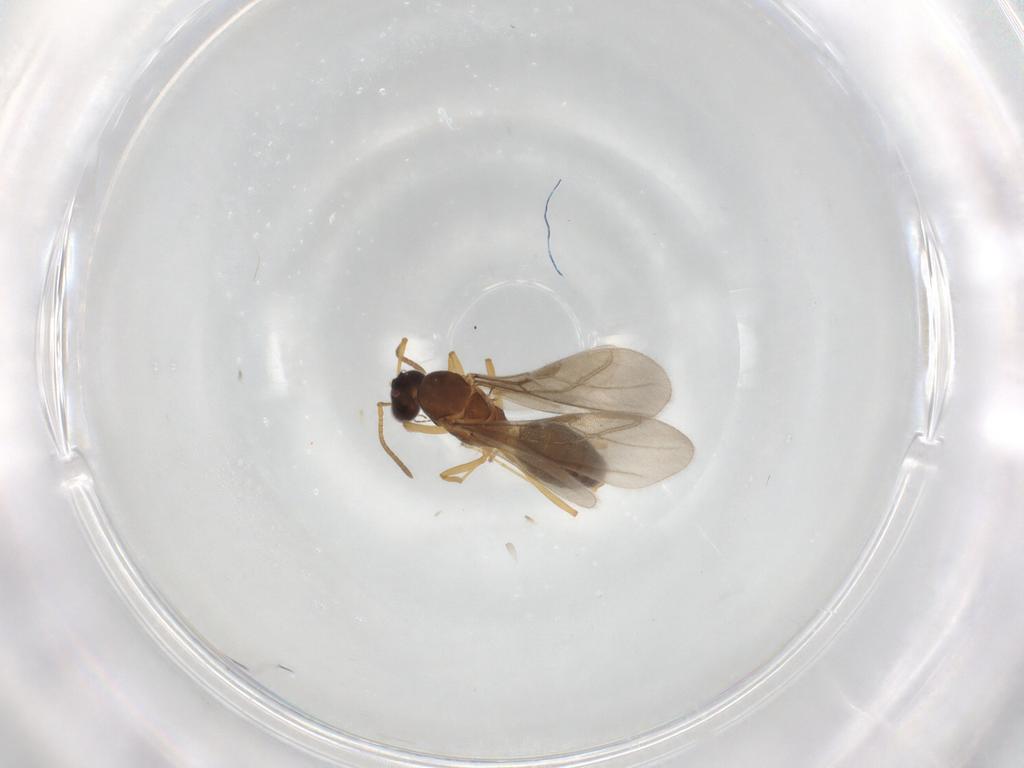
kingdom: Animalia
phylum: Arthropoda
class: Insecta
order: Hymenoptera
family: Formicidae
